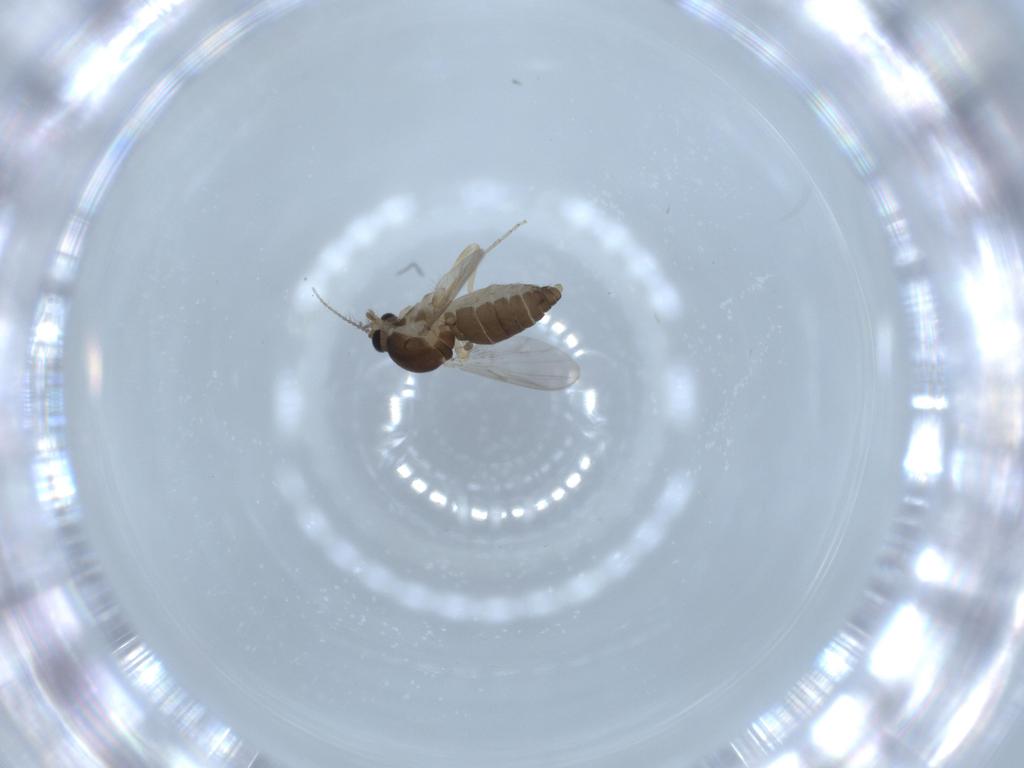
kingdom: Animalia
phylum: Arthropoda
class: Insecta
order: Diptera
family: Ceratopogonidae
